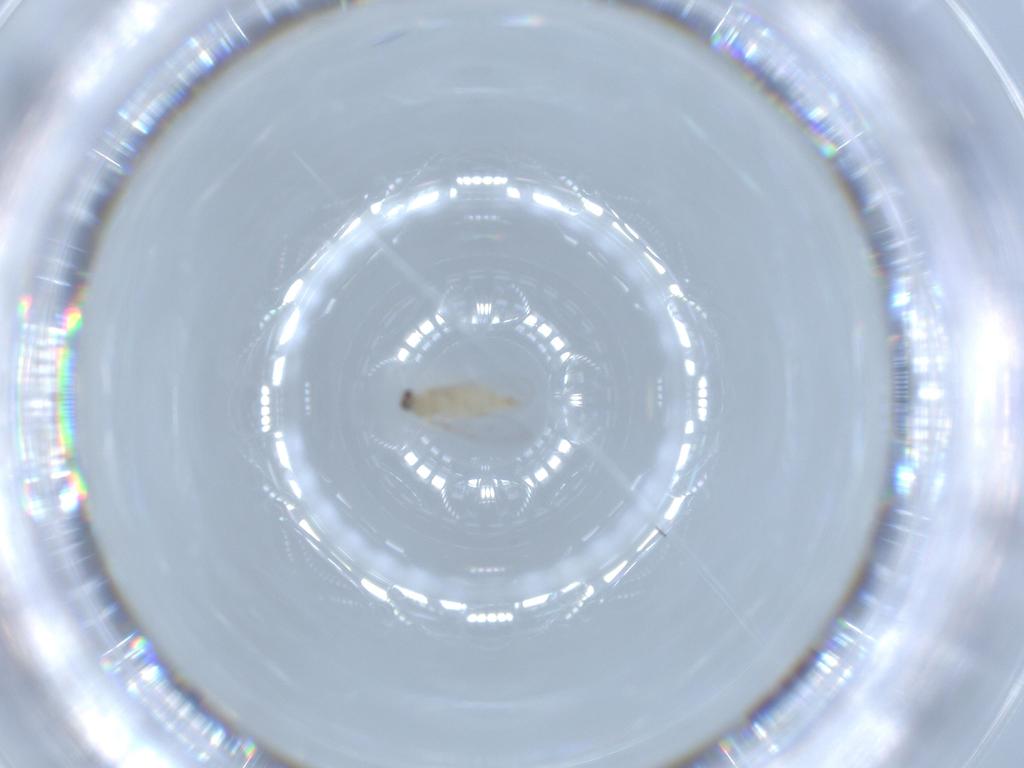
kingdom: Animalia
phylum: Arthropoda
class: Insecta
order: Diptera
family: Cecidomyiidae
